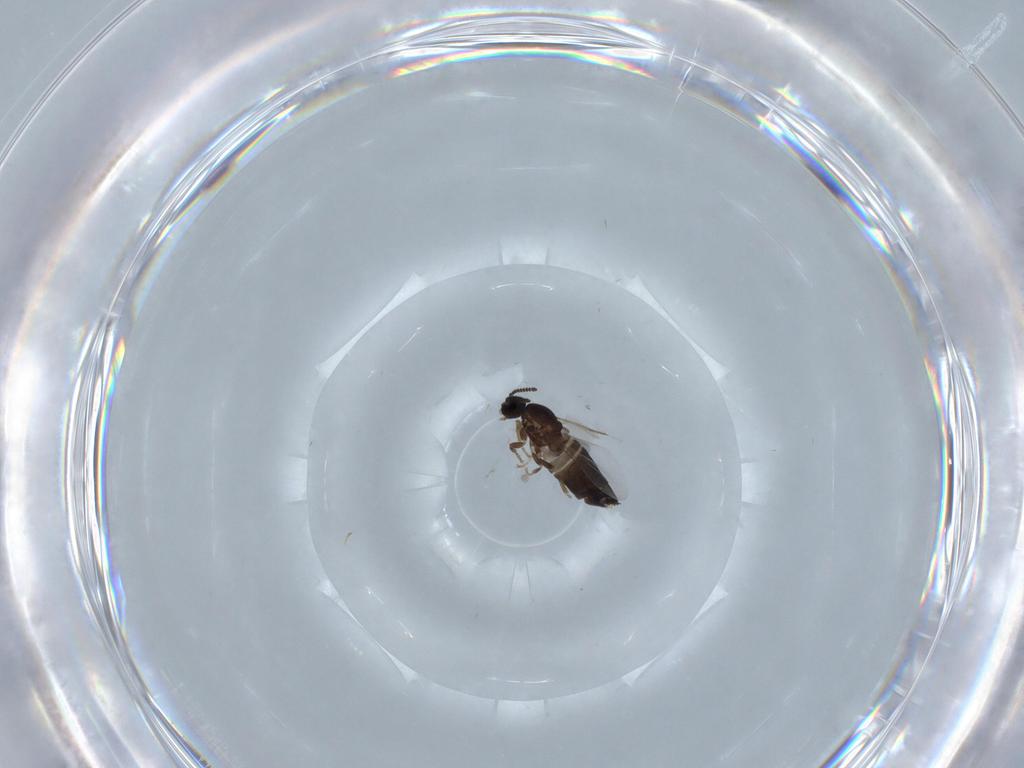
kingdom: Animalia
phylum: Arthropoda
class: Insecta
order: Diptera
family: Scatopsidae
